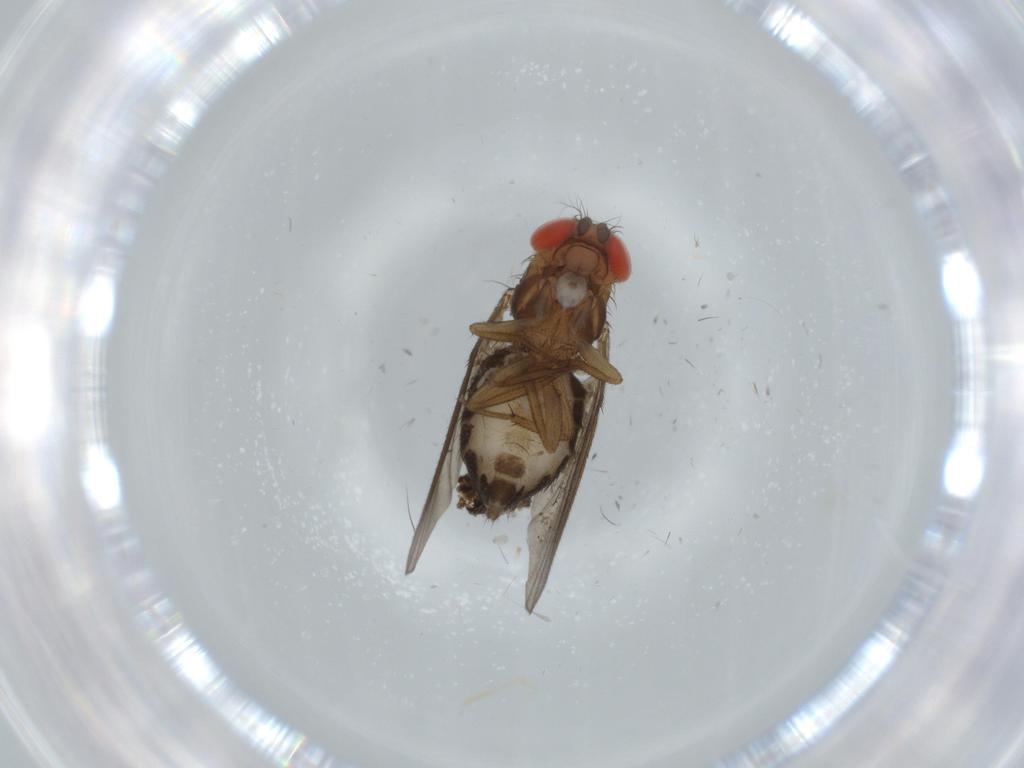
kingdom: Animalia
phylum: Arthropoda
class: Insecta
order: Diptera
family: Drosophilidae
